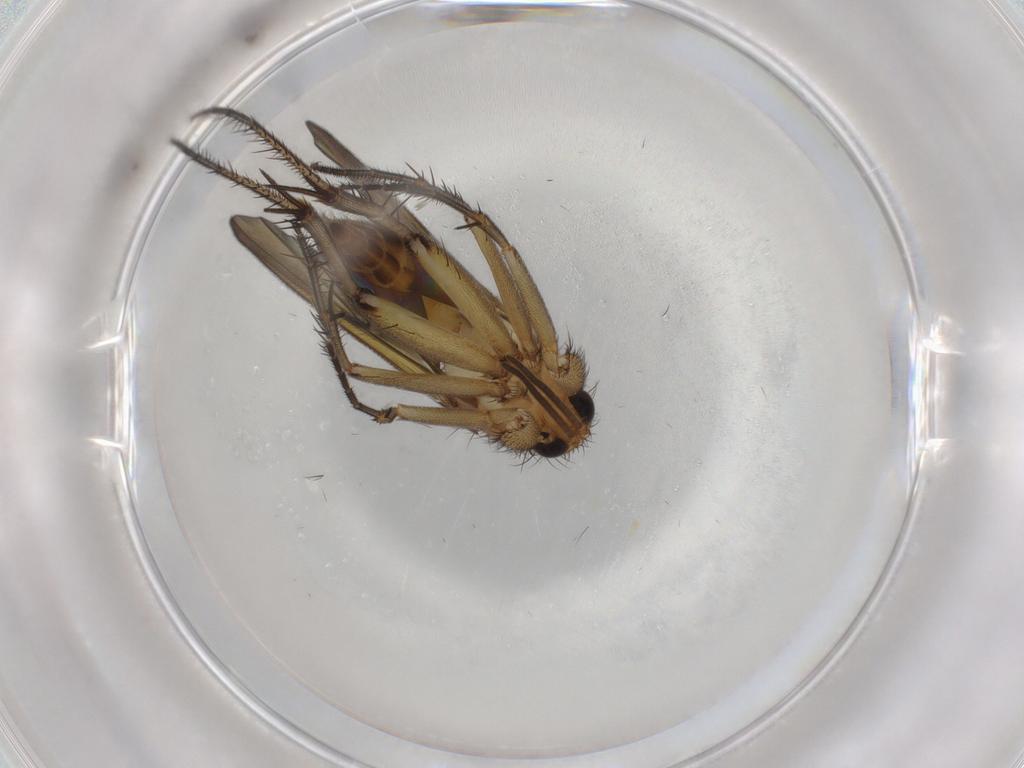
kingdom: Animalia
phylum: Arthropoda
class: Insecta
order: Diptera
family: Mycetophilidae
